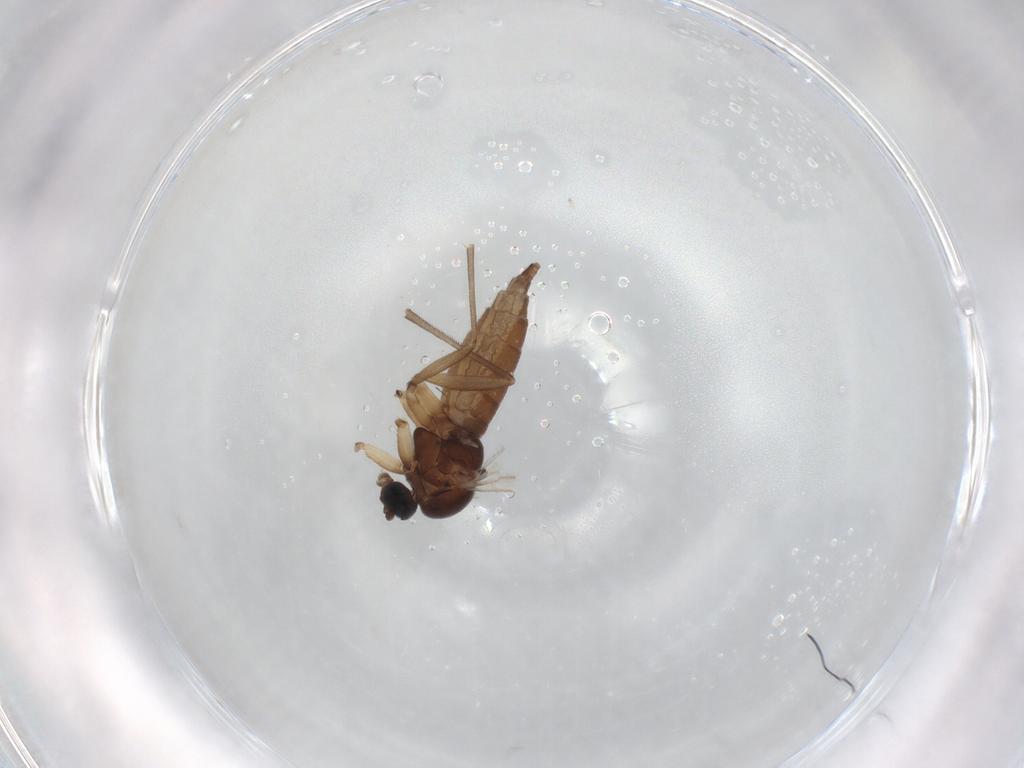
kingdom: Animalia
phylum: Arthropoda
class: Insecta
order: Diptera
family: Sciaridae
